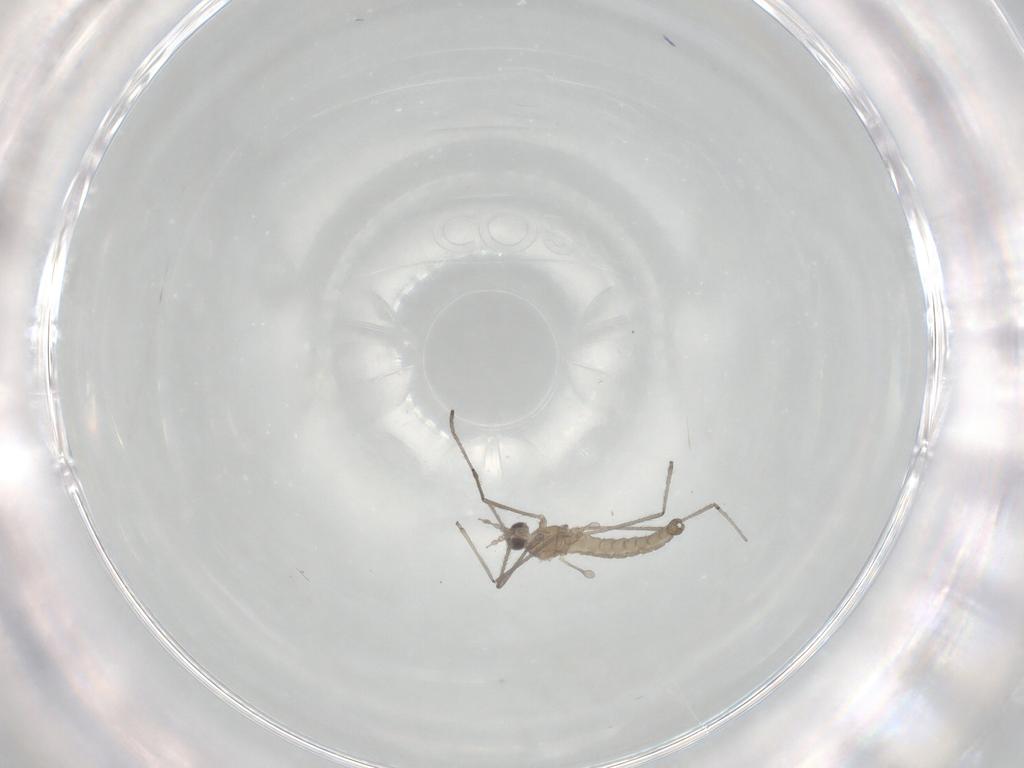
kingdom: Animalia
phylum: Arthropoda
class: Insecta
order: Diptera
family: Cecidomyiidae
